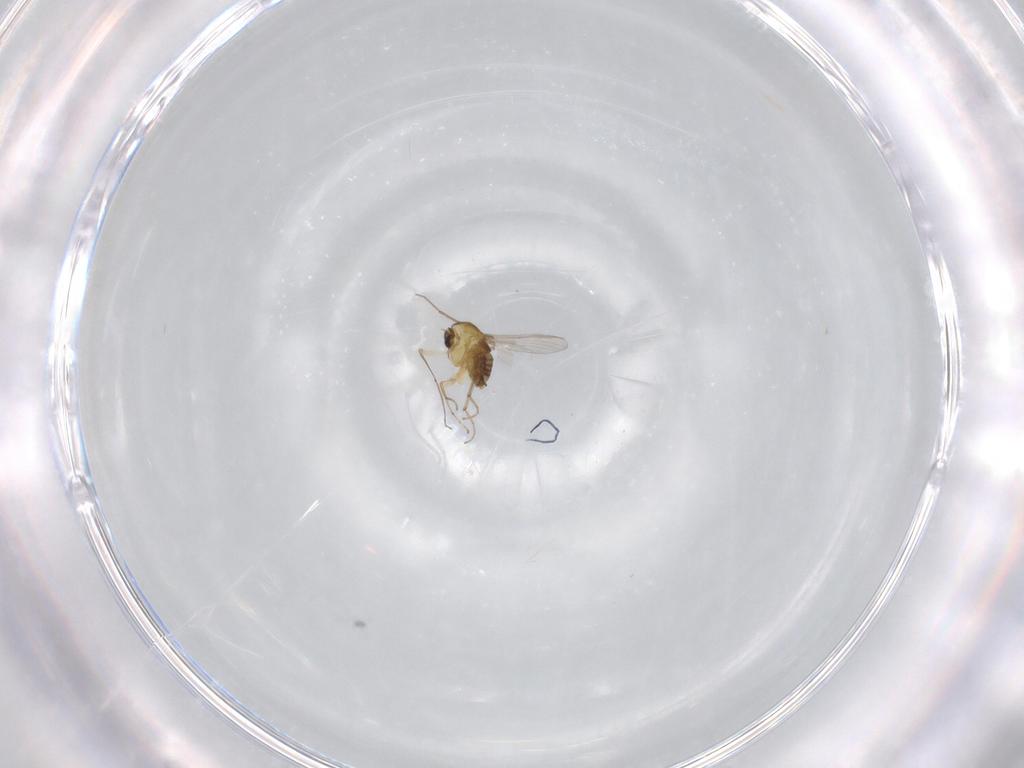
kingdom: Animalia
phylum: Arthropoda
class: Insecta
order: Diptera
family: Chironomidae
